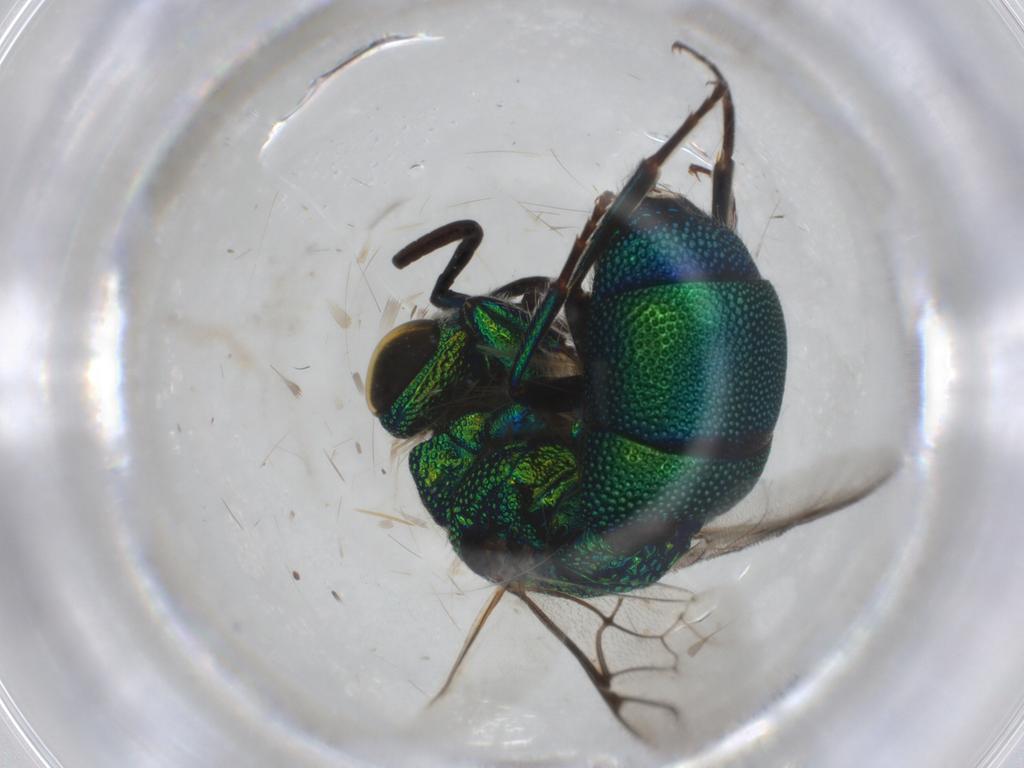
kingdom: Animalia
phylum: Arthropoda
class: Insecta
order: Hymenoptera
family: Chrysididae
